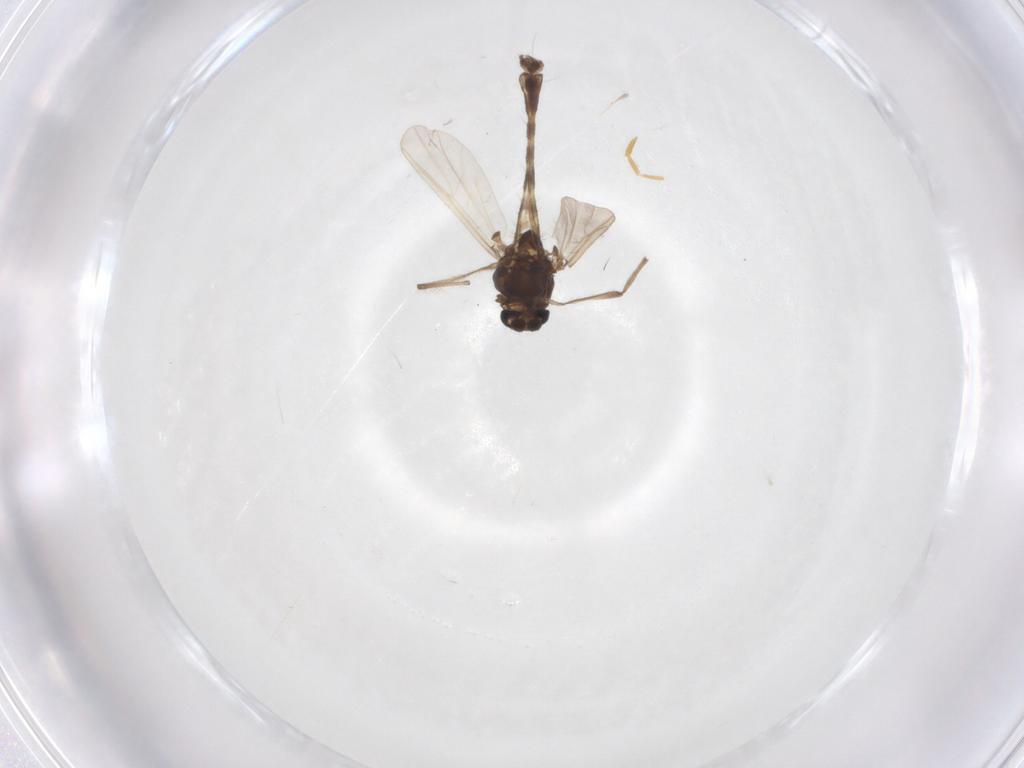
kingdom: Animalia
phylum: Arthropoda
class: Insecta
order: Diptera
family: Chironomidae
